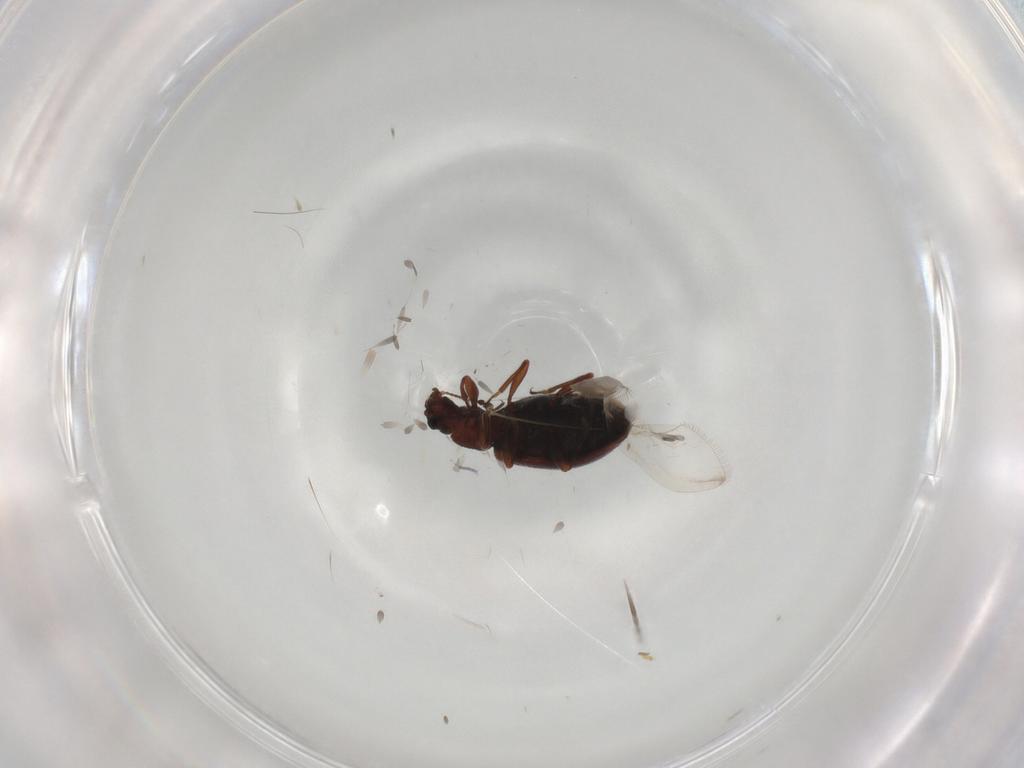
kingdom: Animalia
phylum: Arthropoda
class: Insecta
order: Coleoptera
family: Latridiidae
